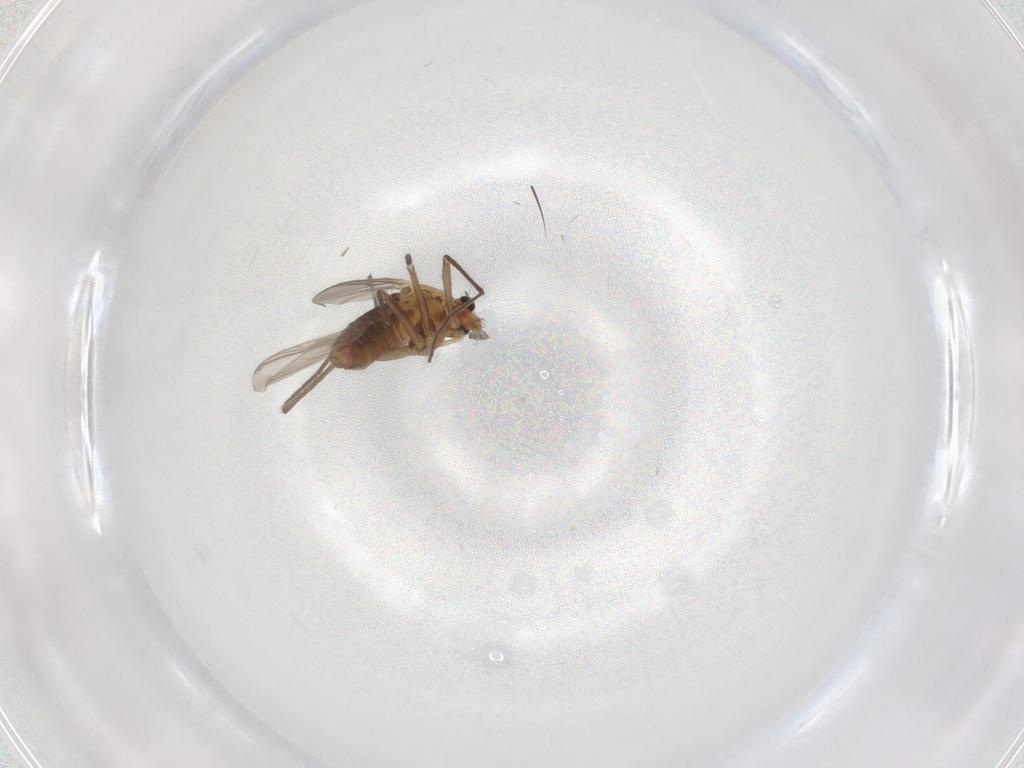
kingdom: Animalia
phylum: Arthropoda
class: Insecta
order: Diptera
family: Chironomidae
